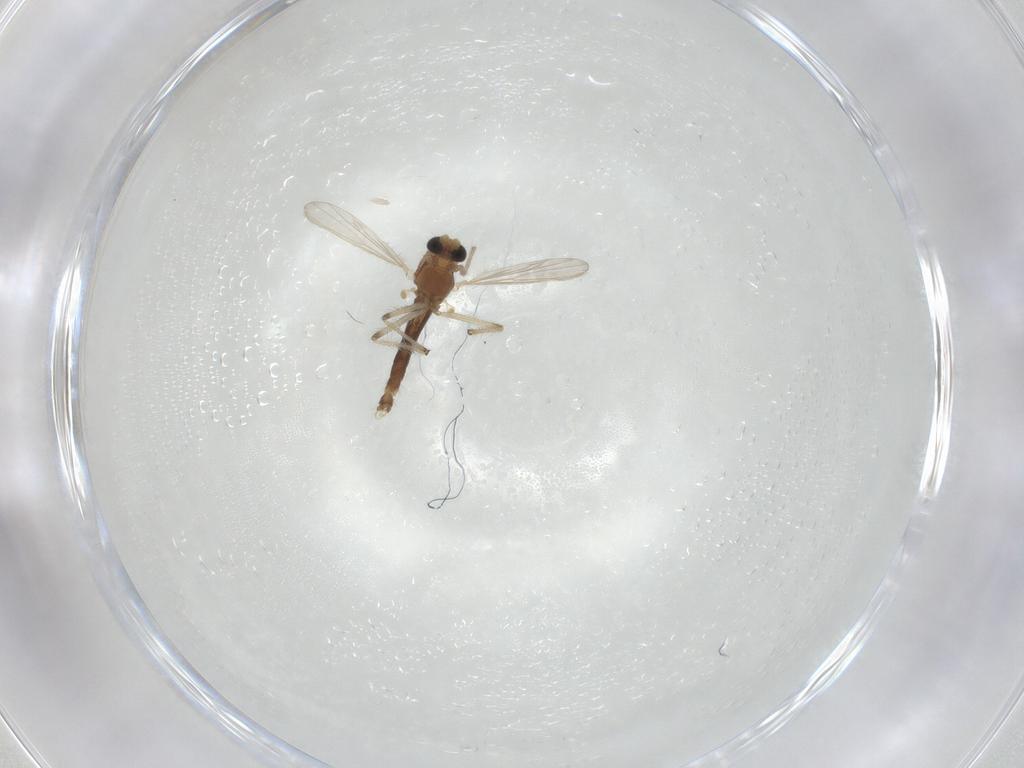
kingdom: Animalia
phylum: Arthropoda
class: Insecta
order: Diptera
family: Chironomidae
